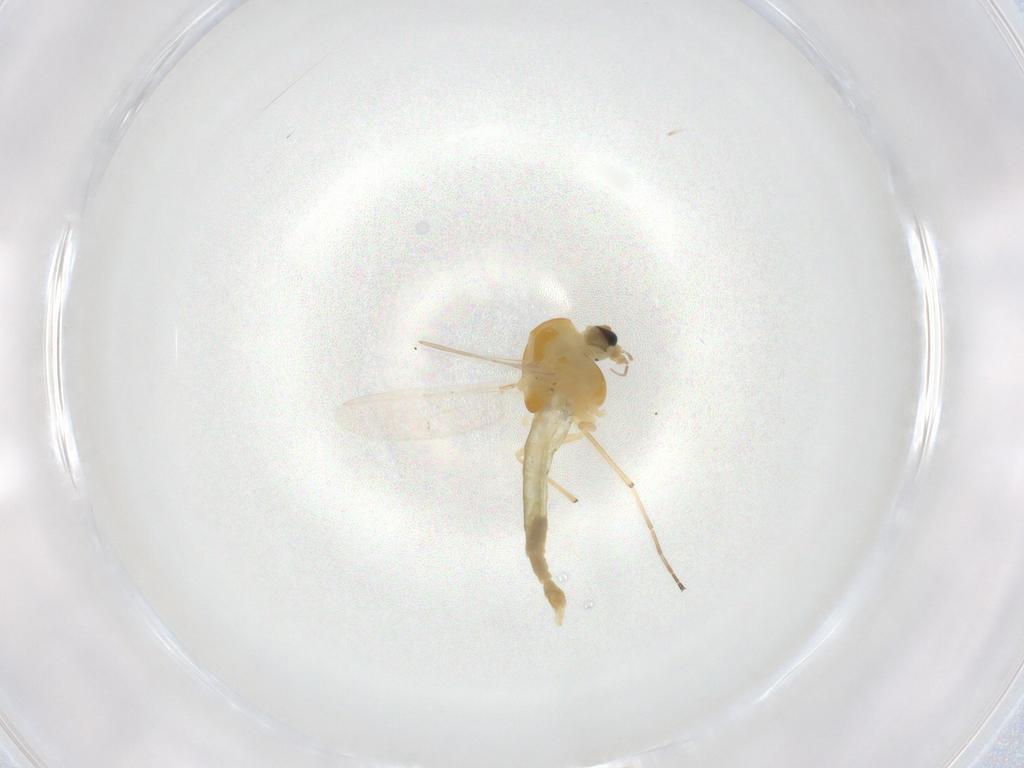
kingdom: Animalia
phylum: Arthropoda
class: Insecta
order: Diptera
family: Chironomidae
